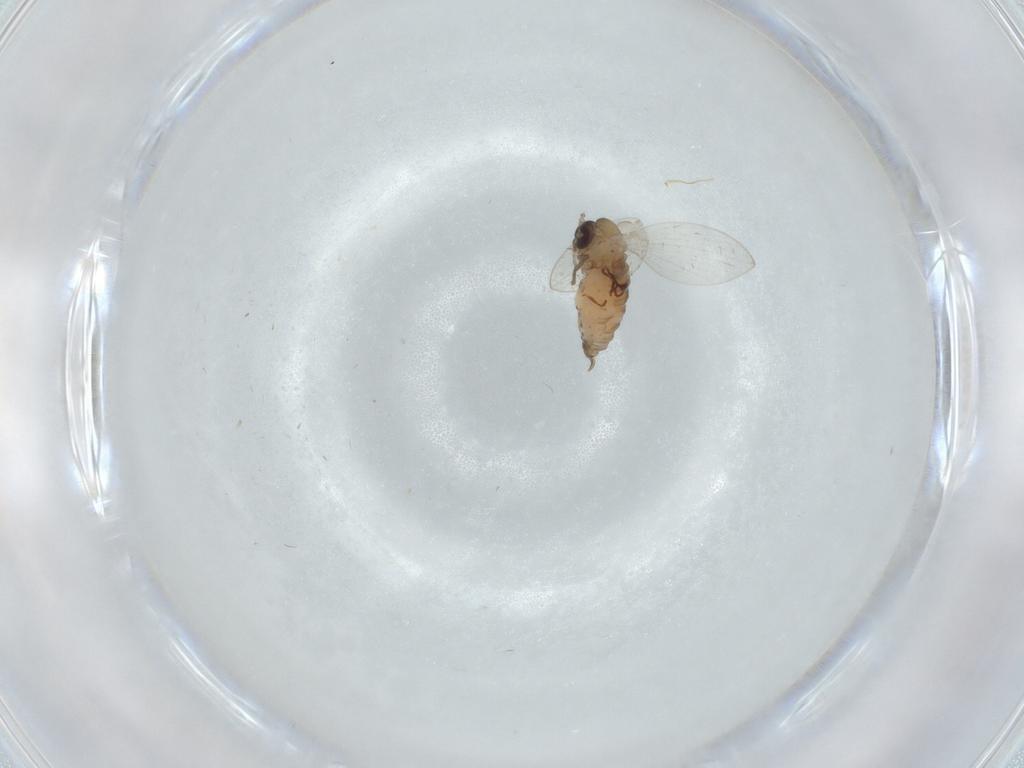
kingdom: Animalia
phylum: Arthropoda
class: Insecta
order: Diptera
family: Psychodidae
